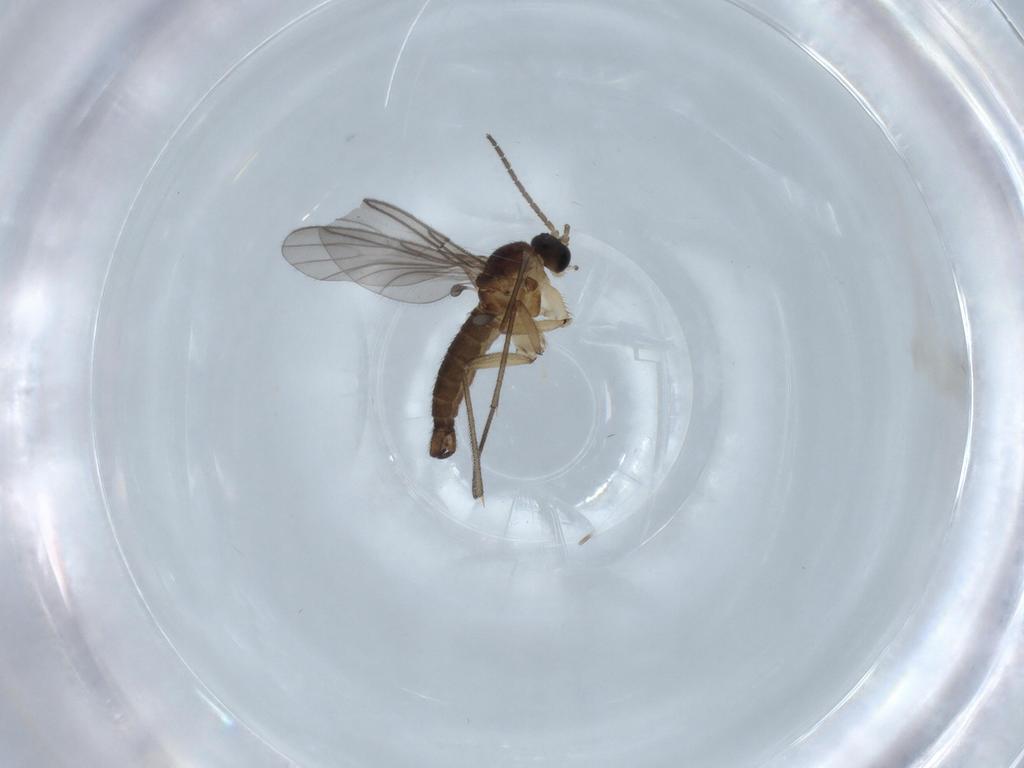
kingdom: Animalia
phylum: Arthropoda
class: Insecta
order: Diptera
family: Sciaridae
